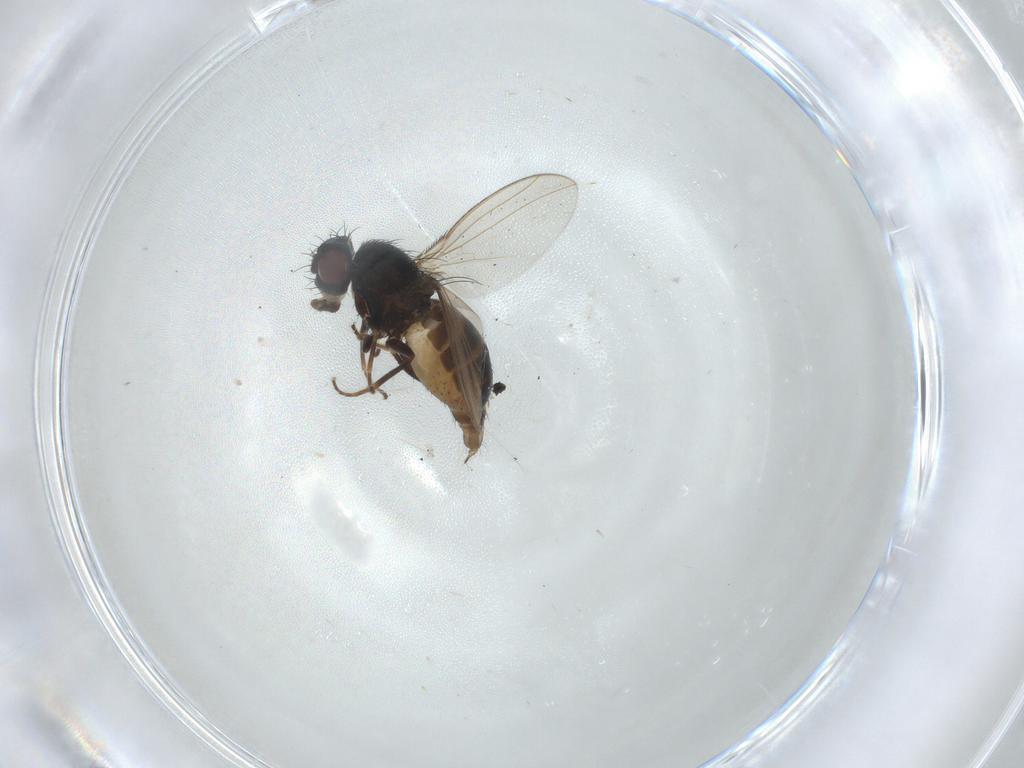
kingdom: Animalia
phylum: Arthropoda
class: Insecta
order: Diptera
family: Carnidae
